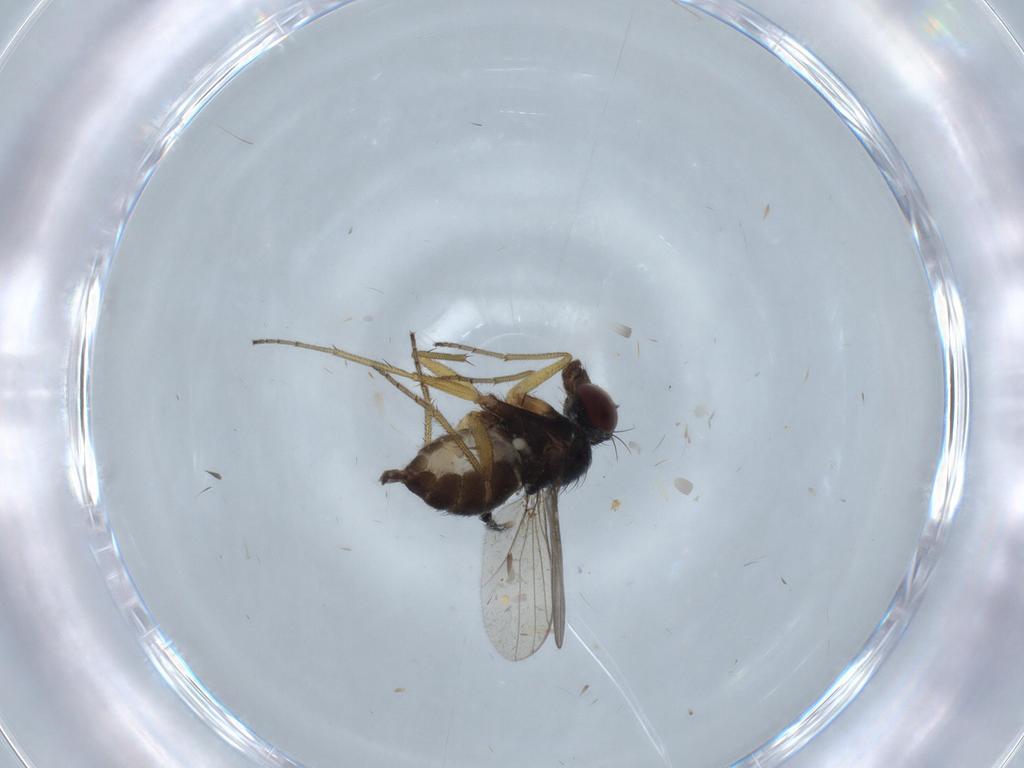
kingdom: Animalia
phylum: Arthropoda
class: Insecta
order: Diptera
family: Dolichopodidae
